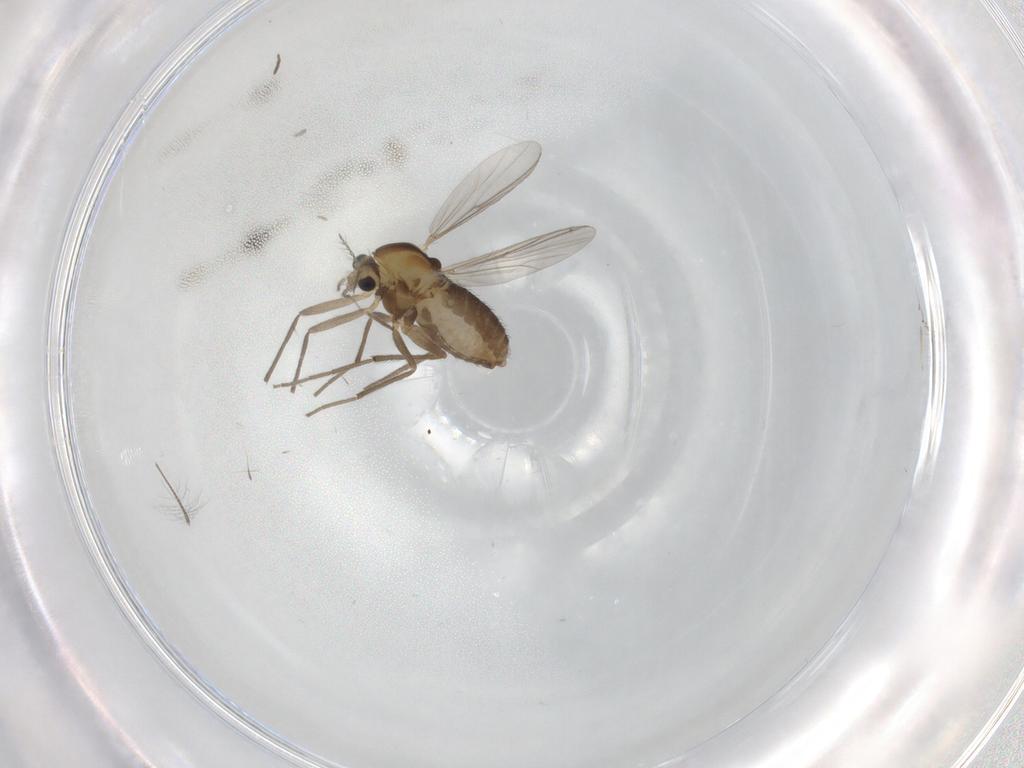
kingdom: Animalia
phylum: Arthropoda
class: Insecta
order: Diptera
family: Chironomidae
